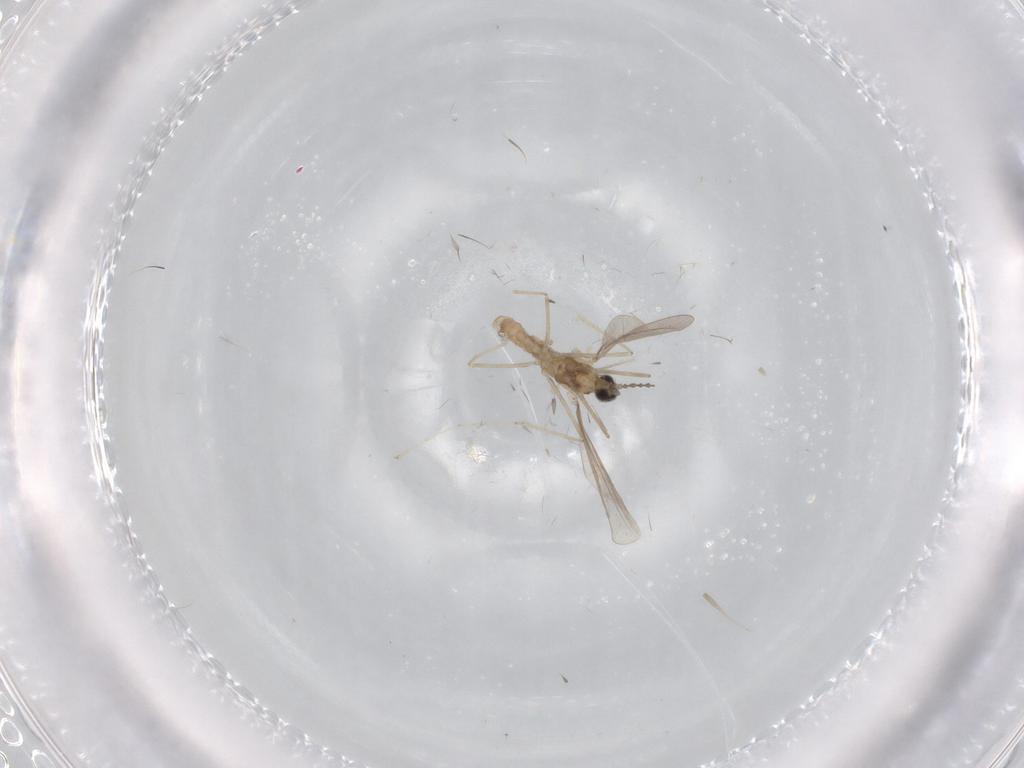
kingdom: Animalia
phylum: Arthropoda
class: Insecta
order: Diptera
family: Cecidomyiidae
